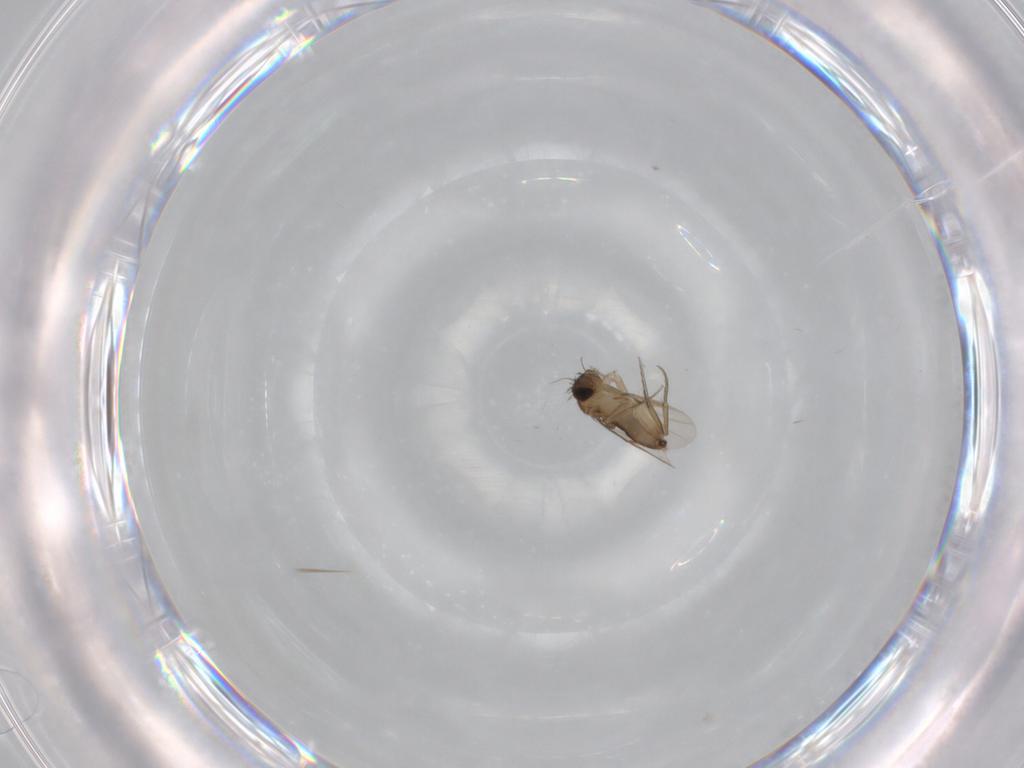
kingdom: Animalia
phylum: Arthropoda
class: Insecta
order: Diptera
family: Phoridae
